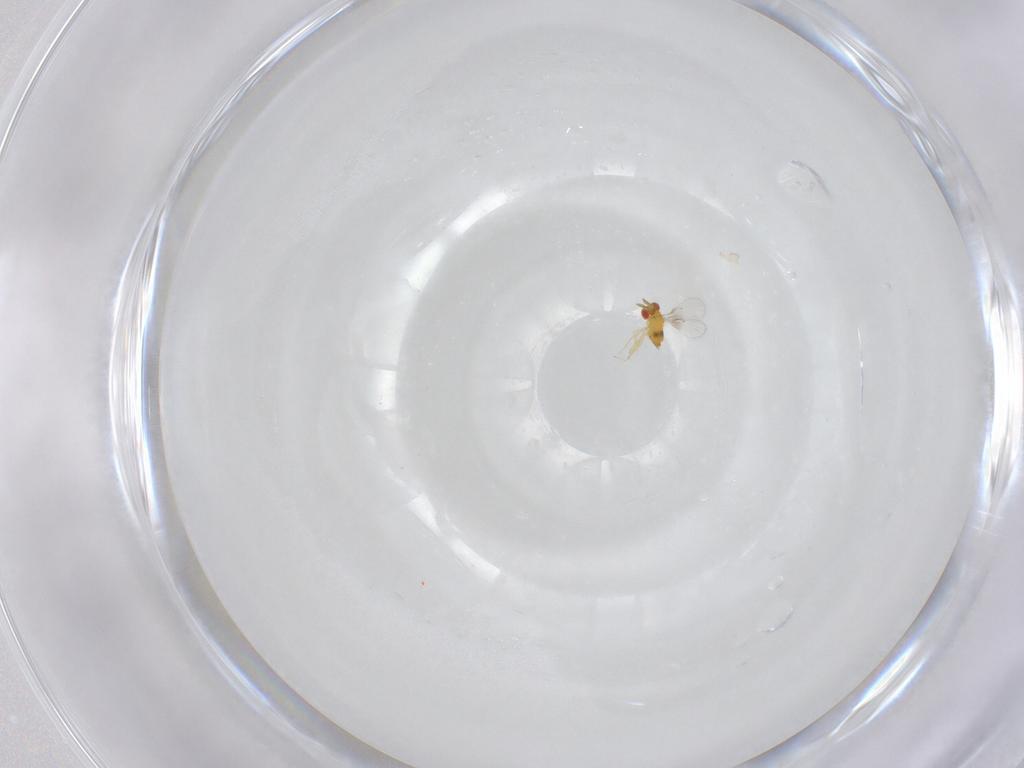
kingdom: Animalia
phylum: Arthropoda
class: Insecta
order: Hymenoptera
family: Trichogrammatidae
